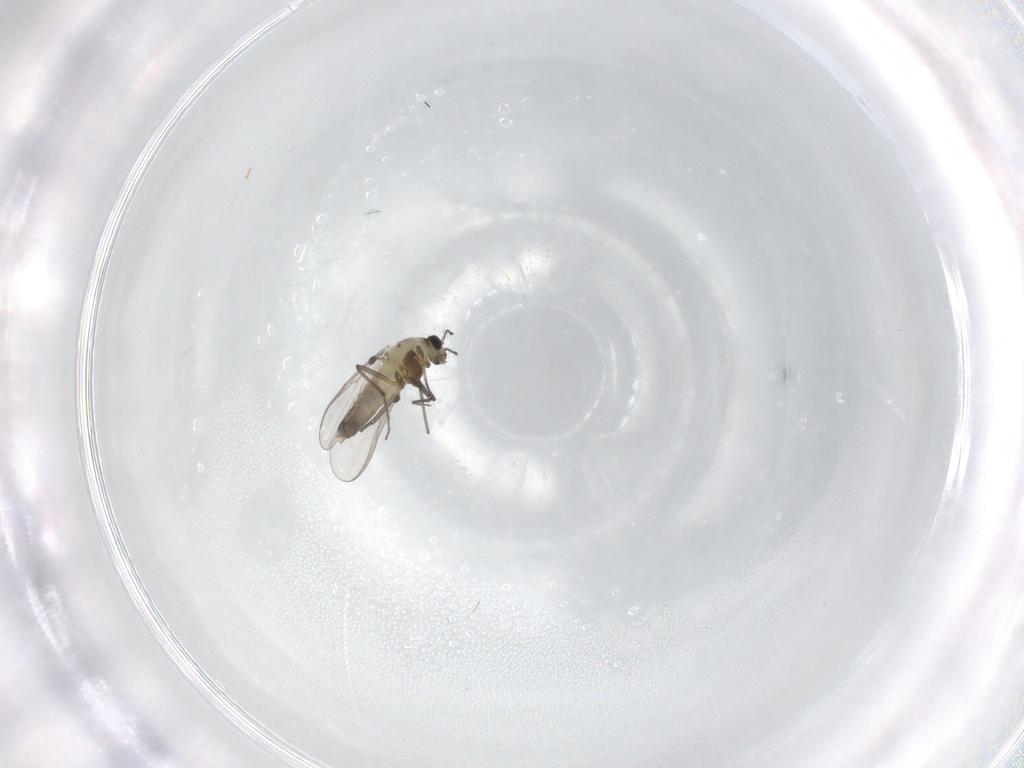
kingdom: Animalia
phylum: Arthropoda
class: Insecta
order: Diptera
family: Chironomidae
